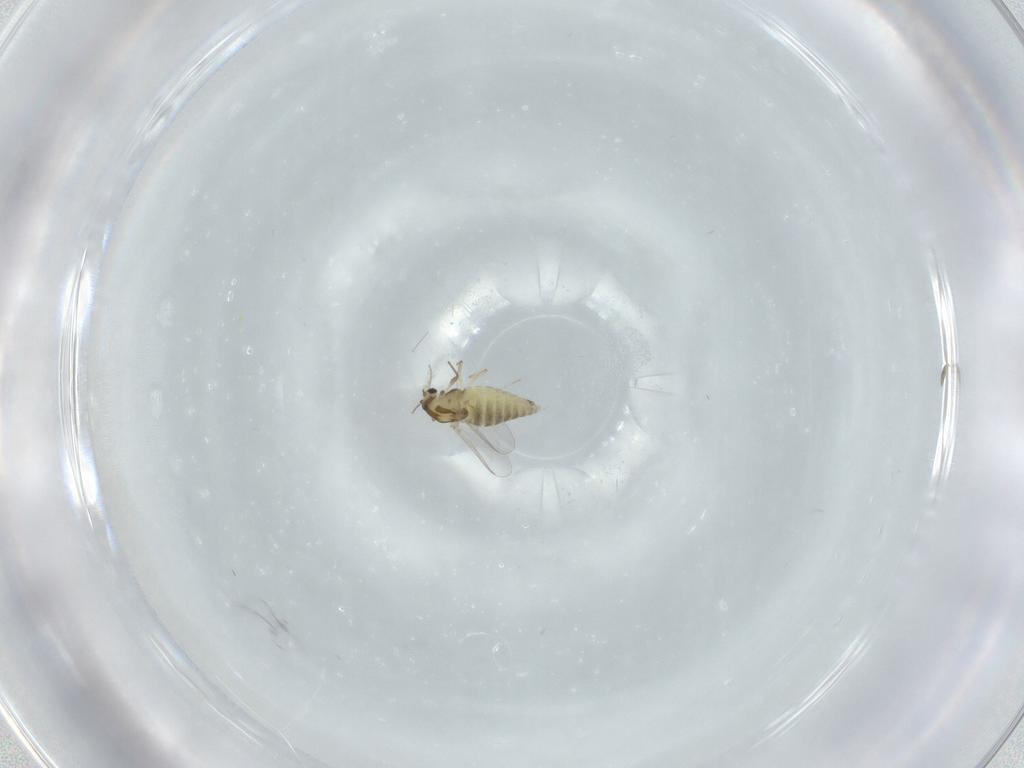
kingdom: Animalia
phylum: Arthropoda
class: Insecta
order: Diptera
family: Chironomidae
